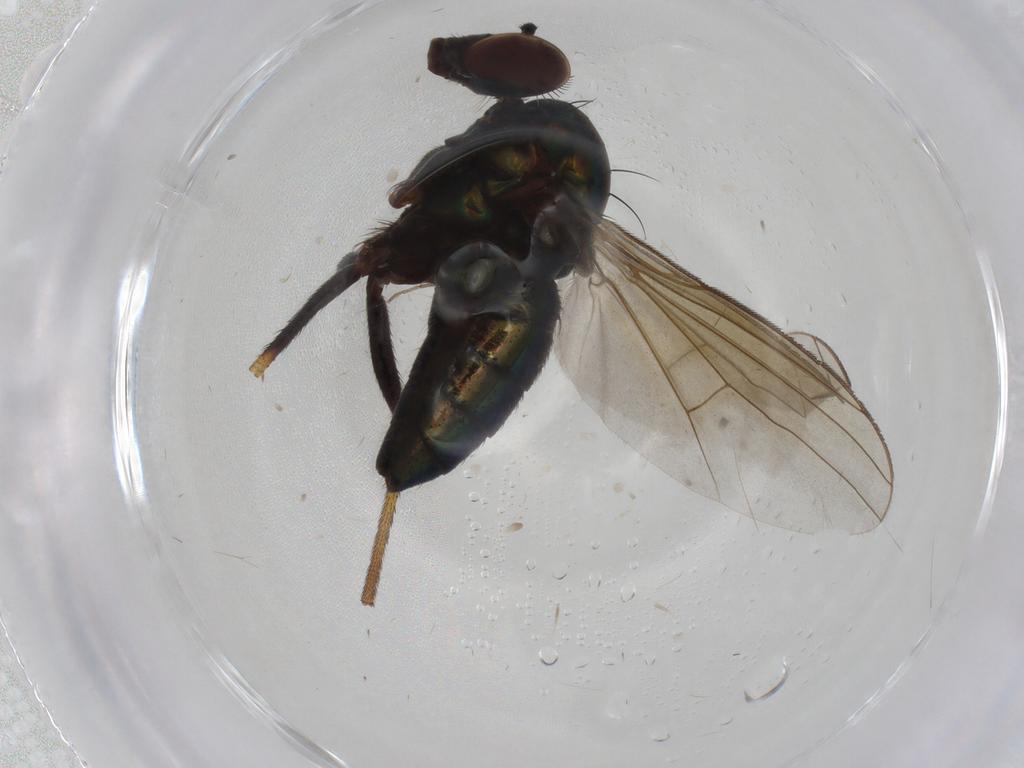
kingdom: Animalia
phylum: Arthropoda
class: Insecta
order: Diptera
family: Dolichopodidae
